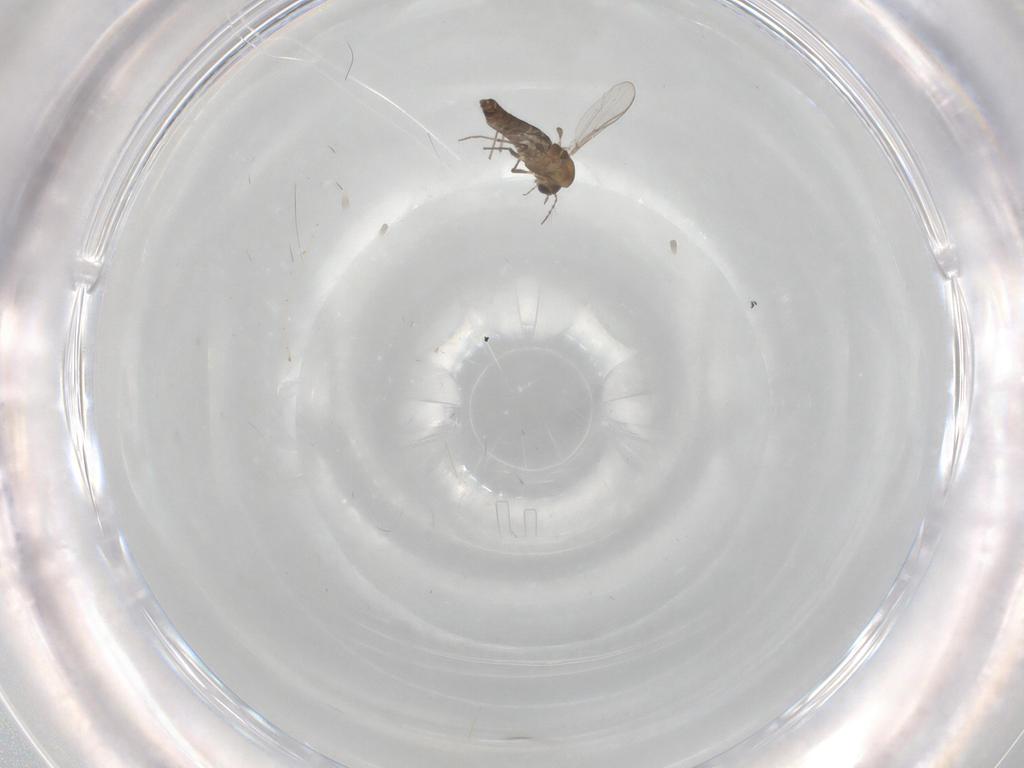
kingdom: Animalia
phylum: Arthropoda
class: Insecta
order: Diptera
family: Chironomidae
